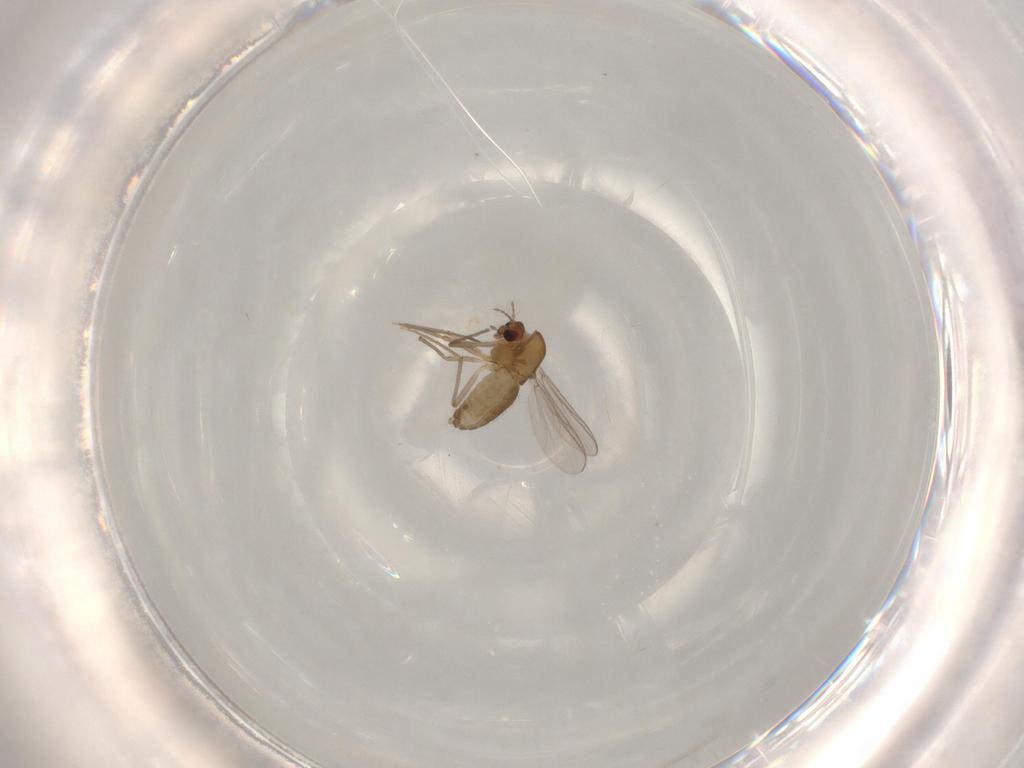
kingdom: Animalia
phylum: Arthropoda
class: Insecta
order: Diptera
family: Chironomidae
